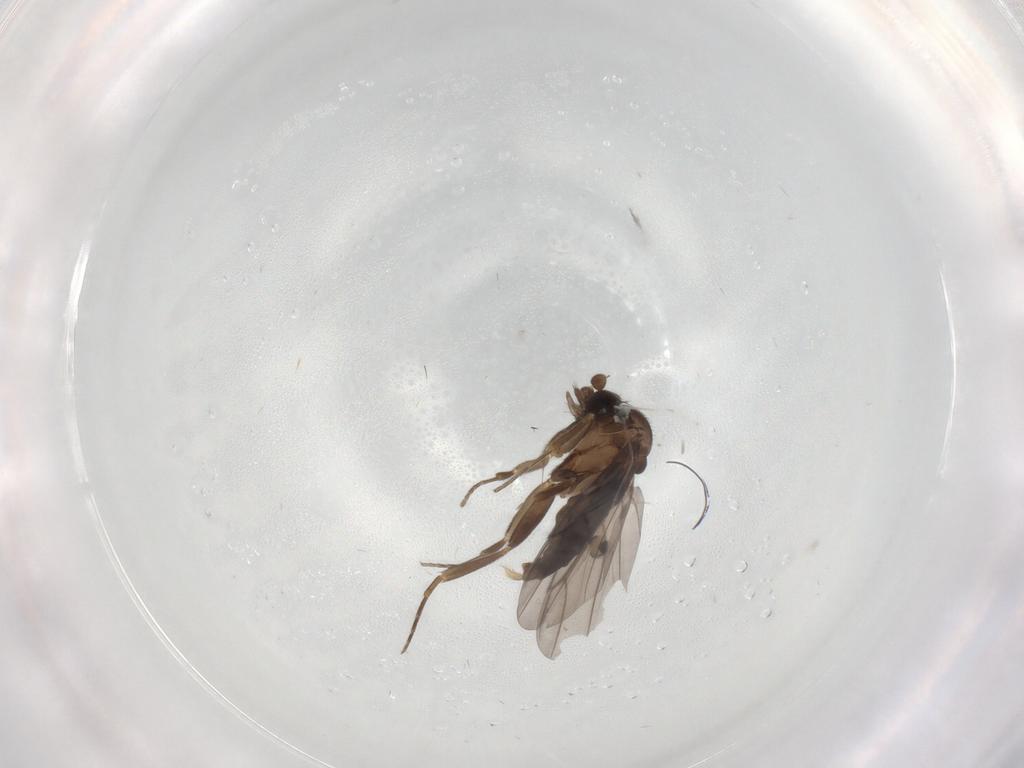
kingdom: Animalia
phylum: Arthropoda
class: Insecta
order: Diptera
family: Cecidomyiidae
